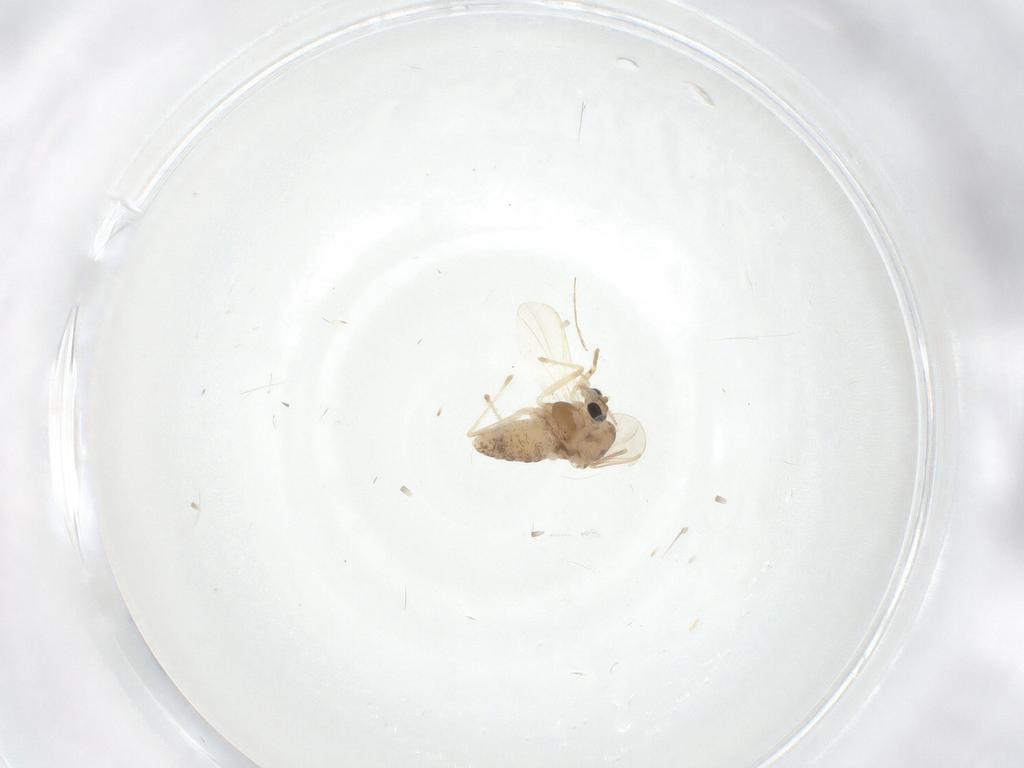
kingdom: Animalia
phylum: Arthropoda
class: Insecta
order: Diptera
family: Chironomidae
